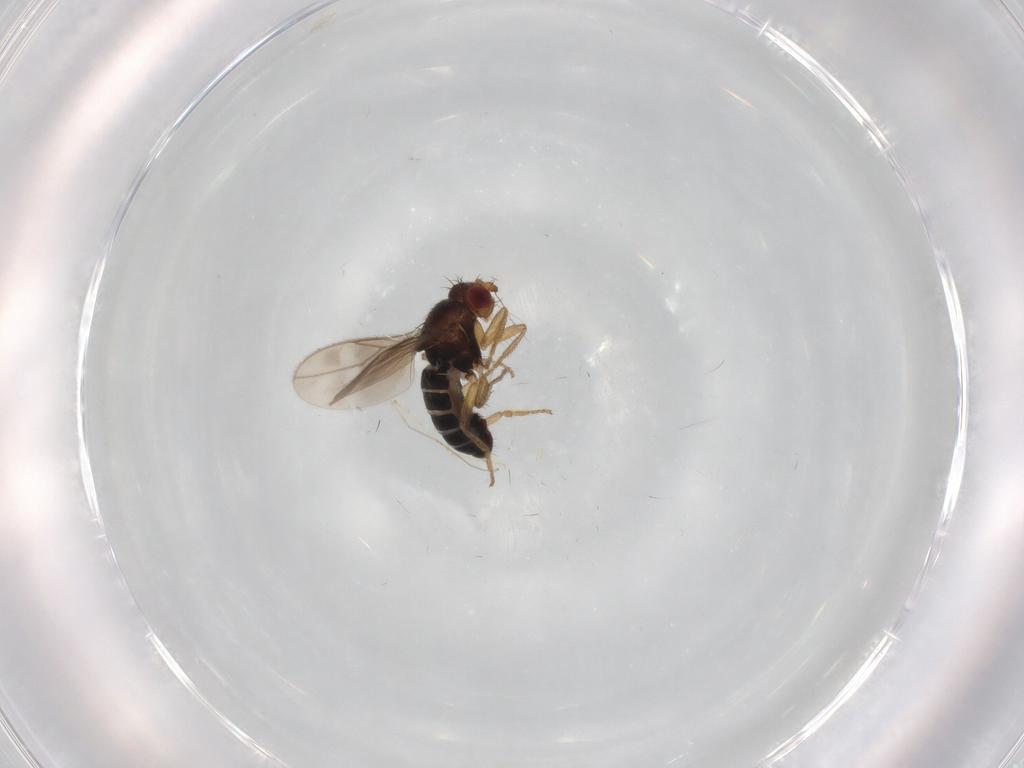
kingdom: Animalia
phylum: Arthropoda
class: Insecta
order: Diptera
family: Sphaeroceridae
